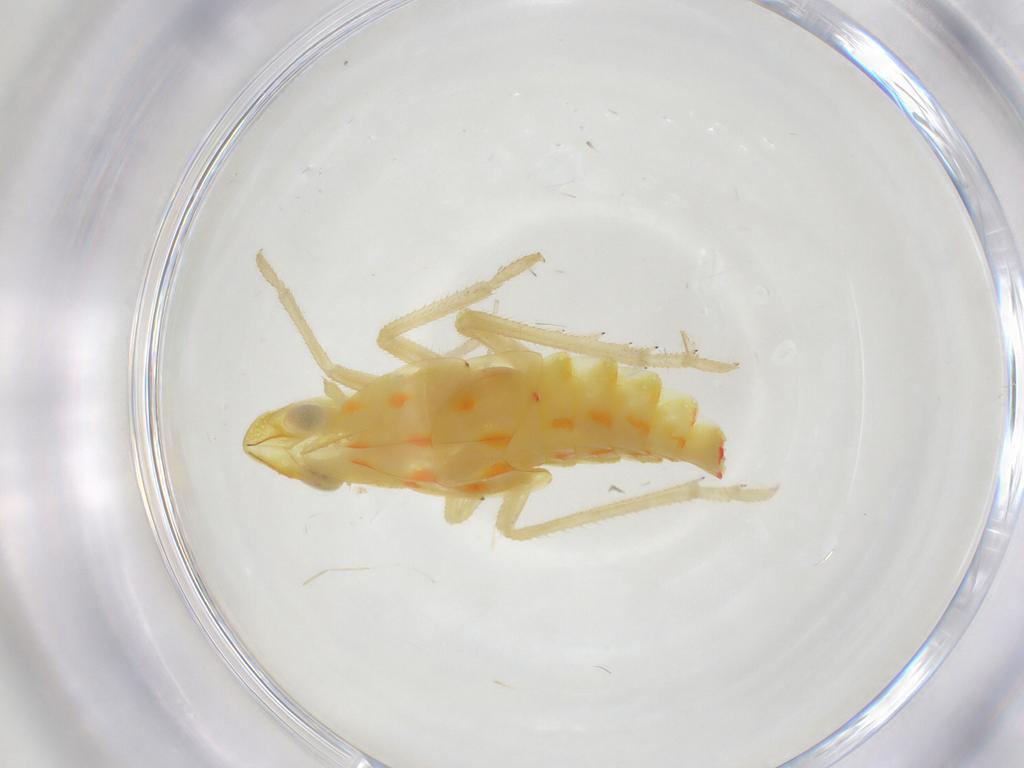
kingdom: Animalia
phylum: Arthropoda
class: Insecta
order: Hemiptera
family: Tropiduchidae
